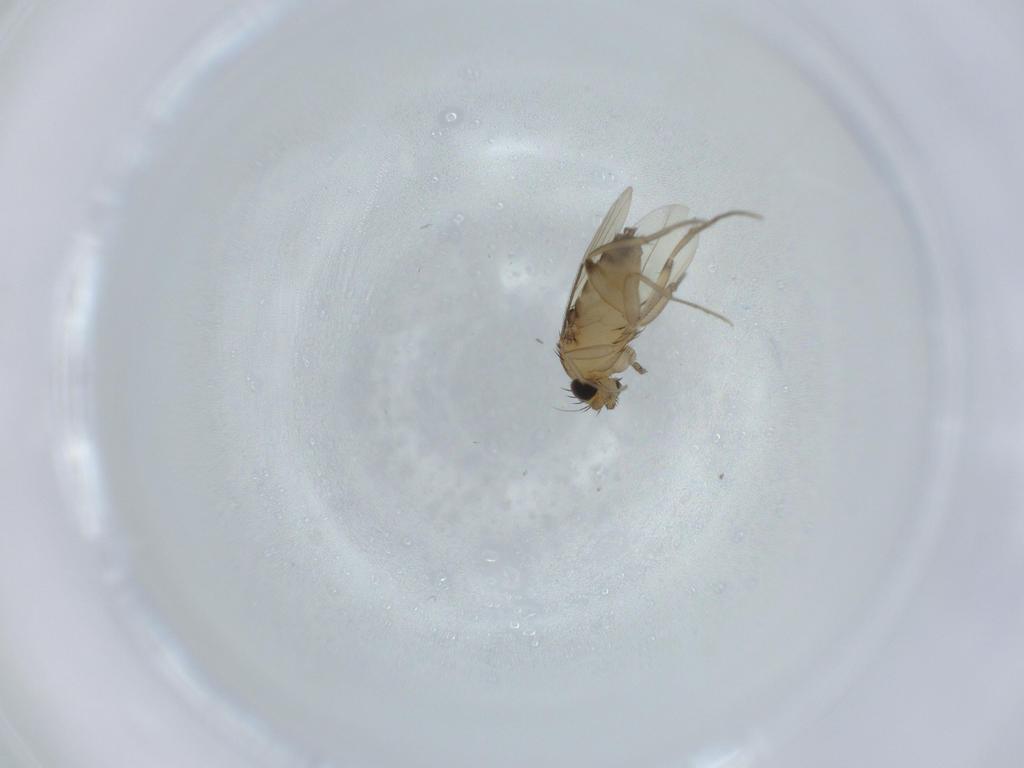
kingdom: Animalia
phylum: Arthropoda
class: Insecta
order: Diptera
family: Phoridae
